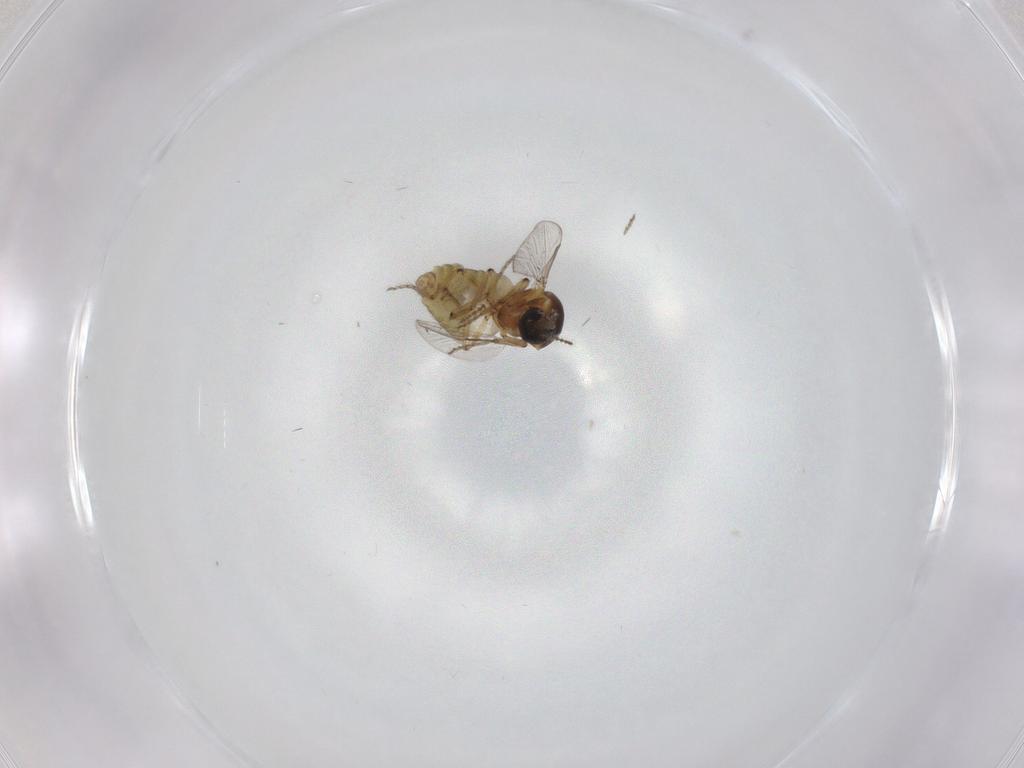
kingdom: Animalia
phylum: Arthropoda
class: Insecta
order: Diptera
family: Ceratopogonidae
